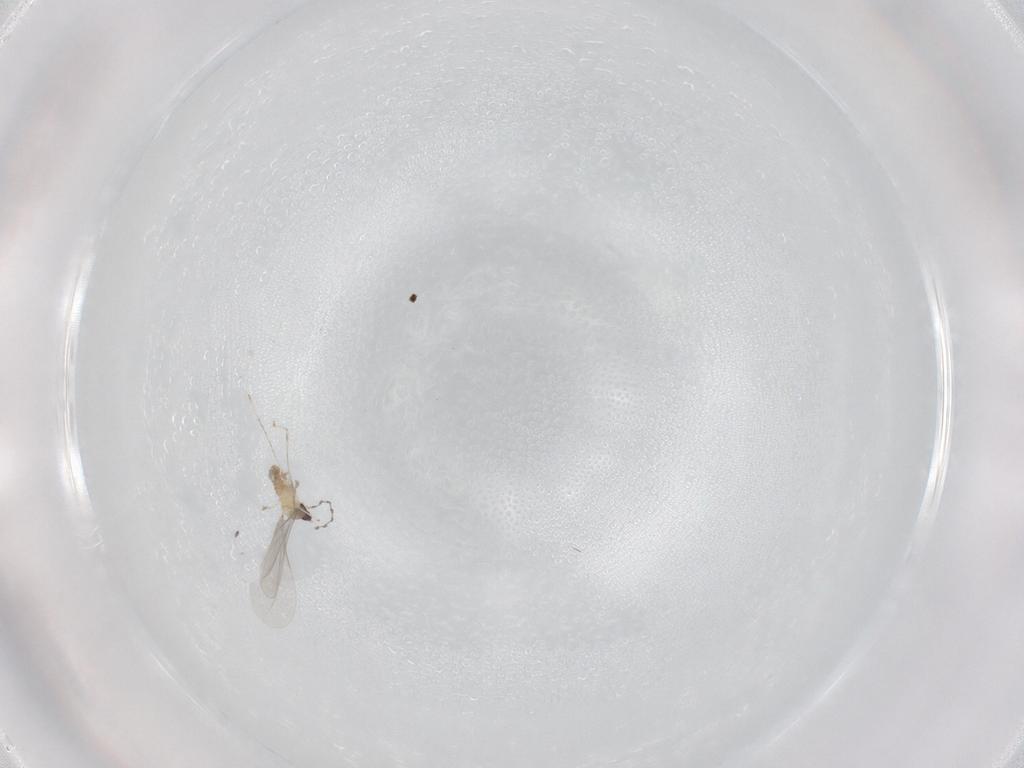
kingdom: Animalia
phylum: Arthropoda
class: Insecta
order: Diptera
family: Cecidomyiidae
